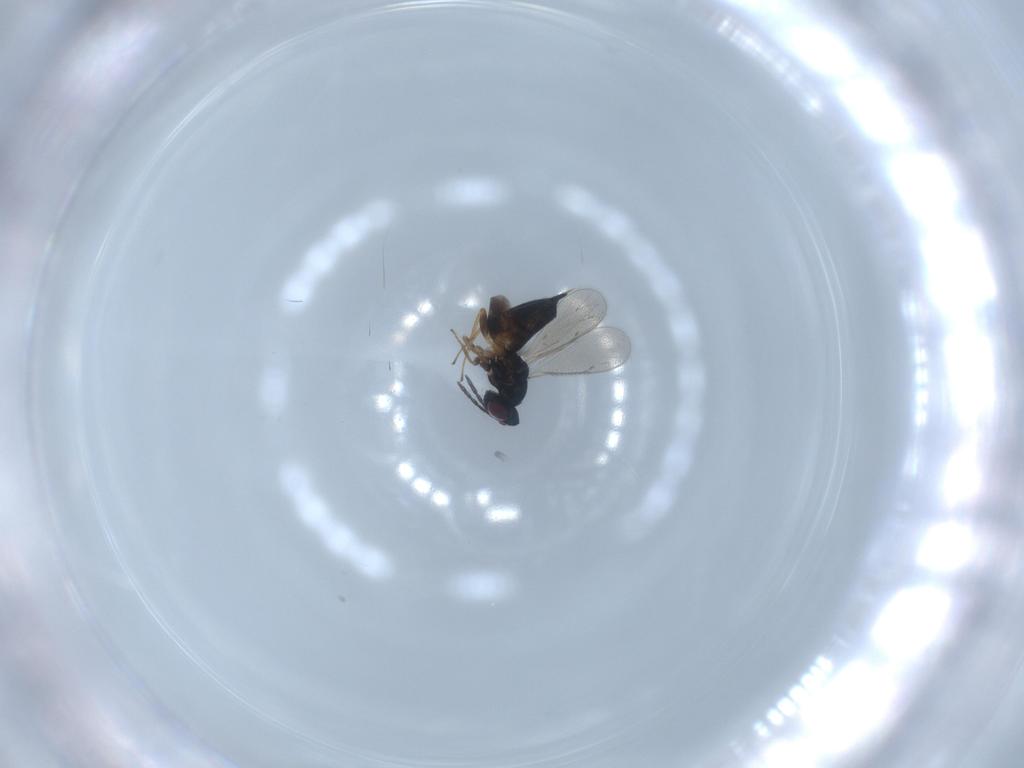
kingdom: Animalia
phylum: Arthropoda
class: Insecta
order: Hymenoptera
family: Eulophidae
